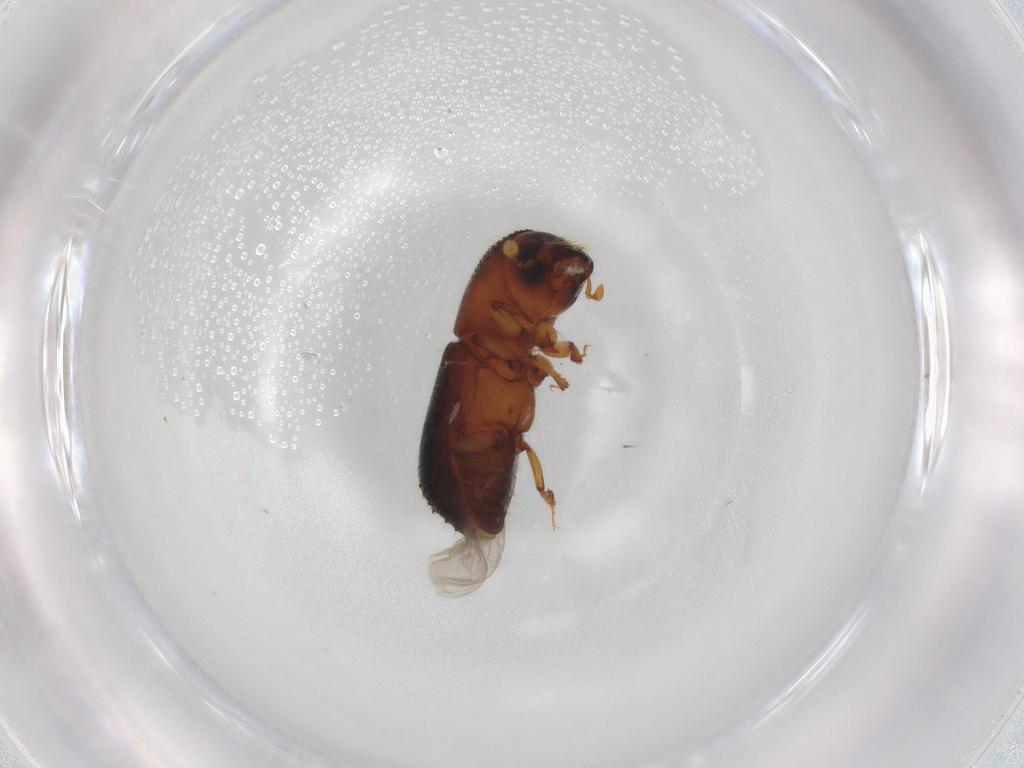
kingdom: Animalia
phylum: Arthropoda
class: Insecta
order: Coleoptera
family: Curculionidae
